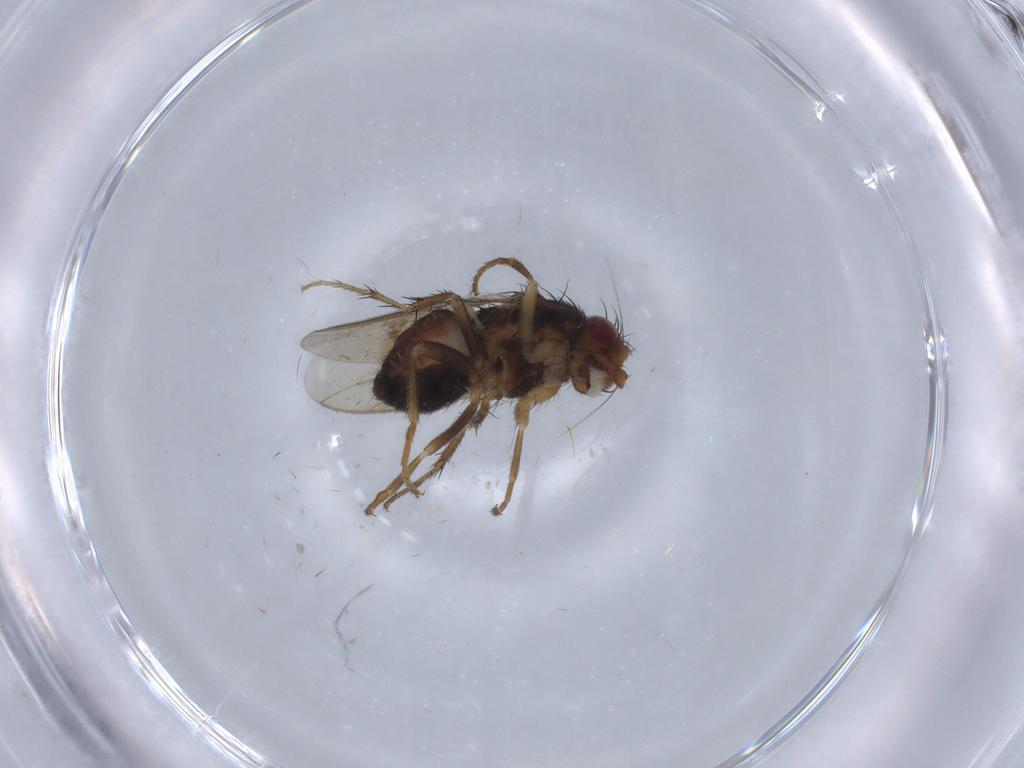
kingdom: Animalia
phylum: Arthropoda
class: Insecta
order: Diptera
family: Sphaeroceridae
